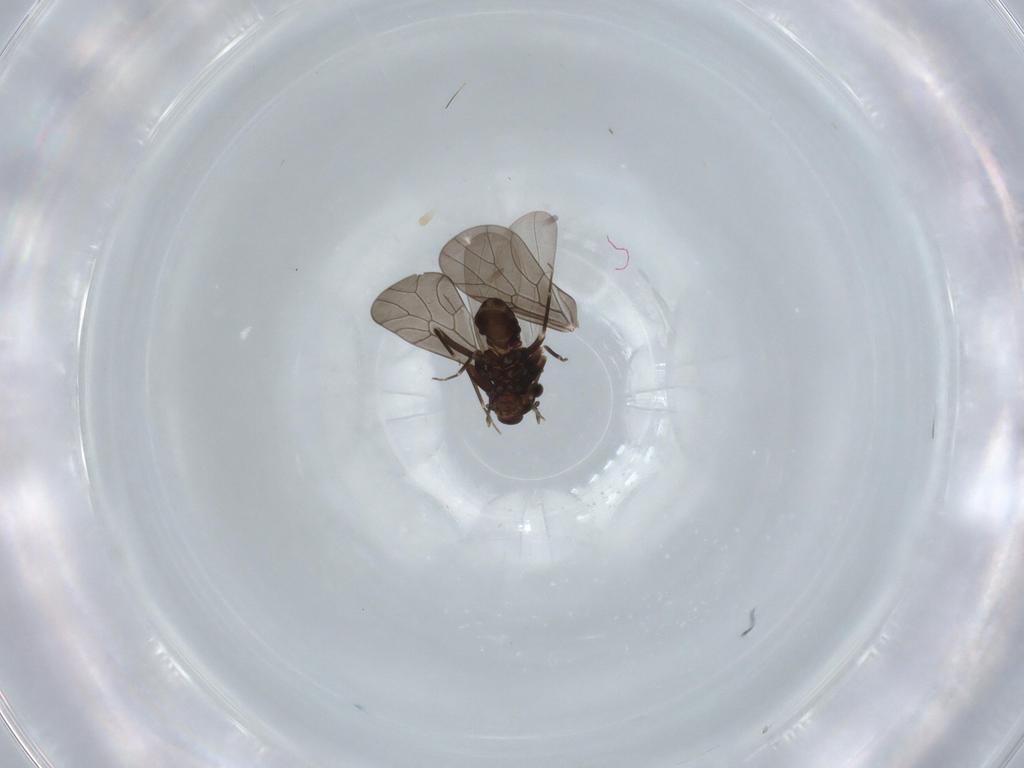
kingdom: Animalia
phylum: Arthropoda
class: Insecta
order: Psocodea
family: Lepidopsocidae
